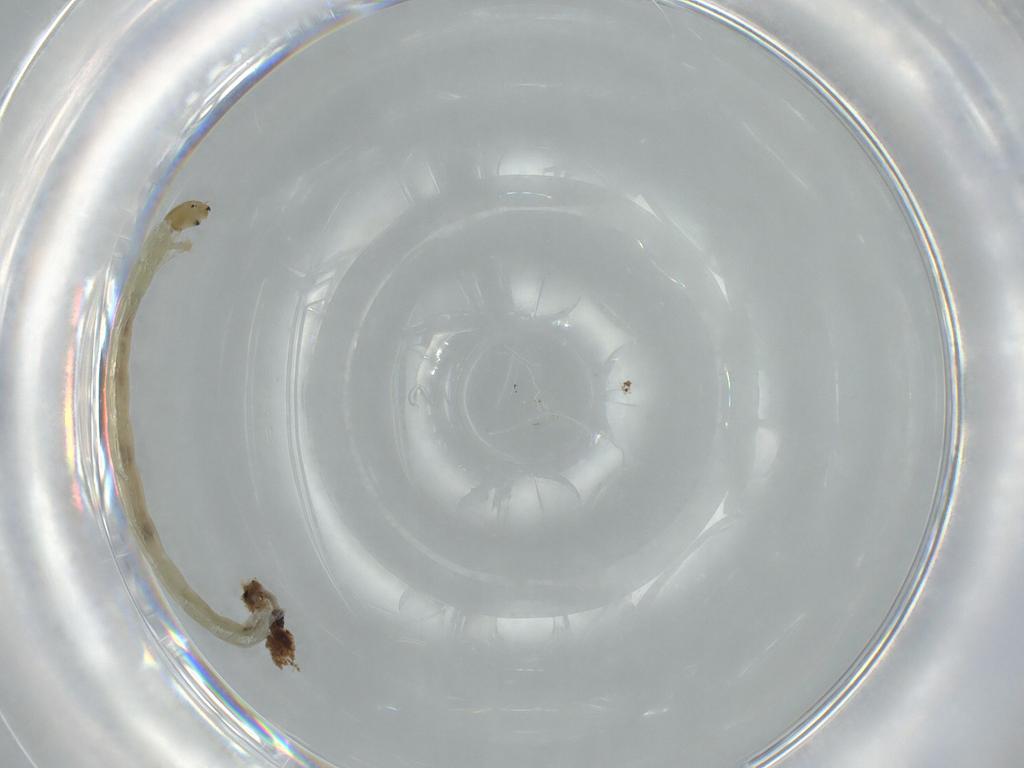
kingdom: Animalia
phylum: Arthropoda
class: Insecta
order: Diptera
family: Chironomidae
